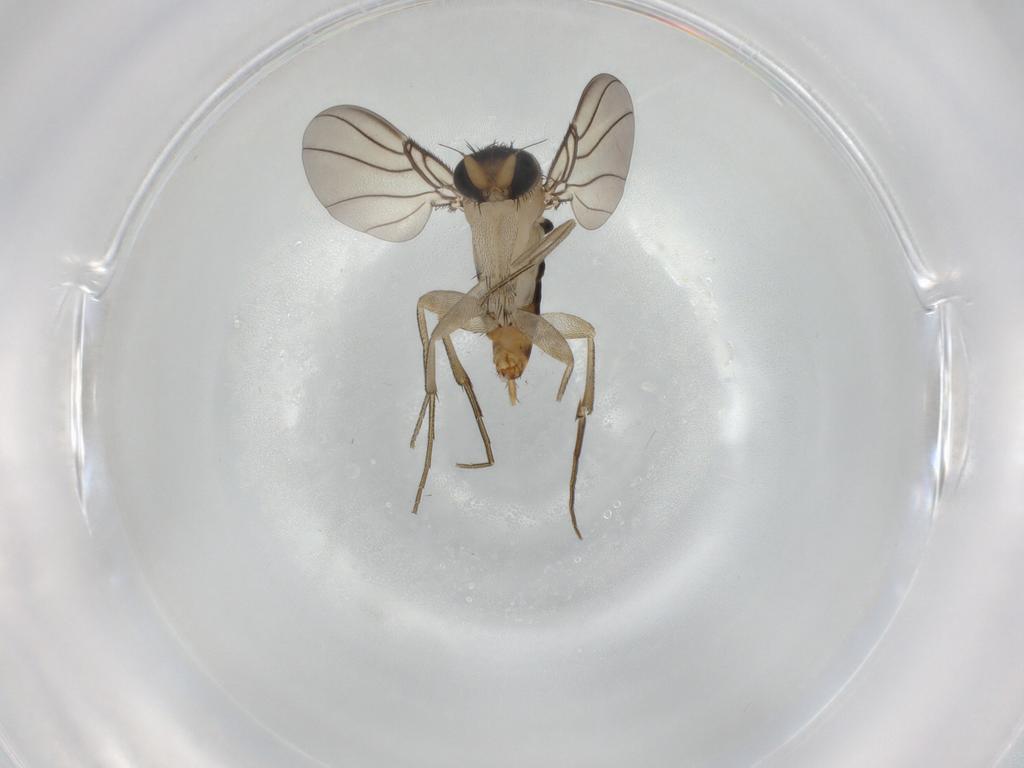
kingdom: Animalia
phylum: Arthropoda
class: Insecta
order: Diptera
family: Phoridae
